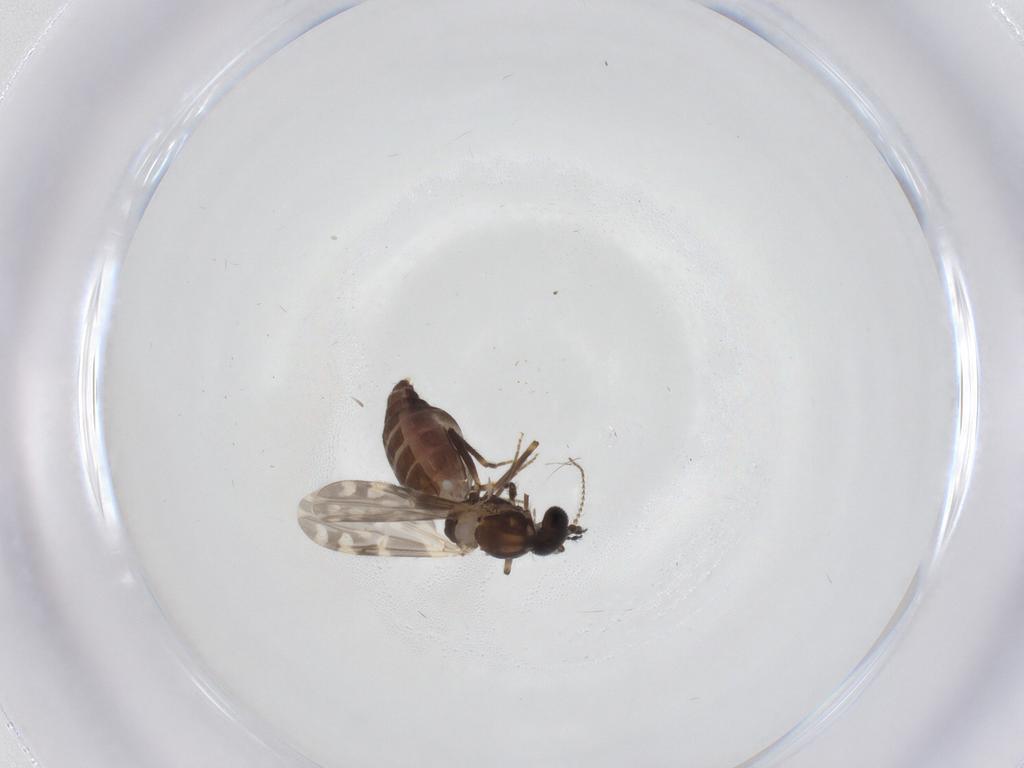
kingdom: Animalia
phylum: Arthropoda
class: Insecta
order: Diptera
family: Ceratopogonidae
